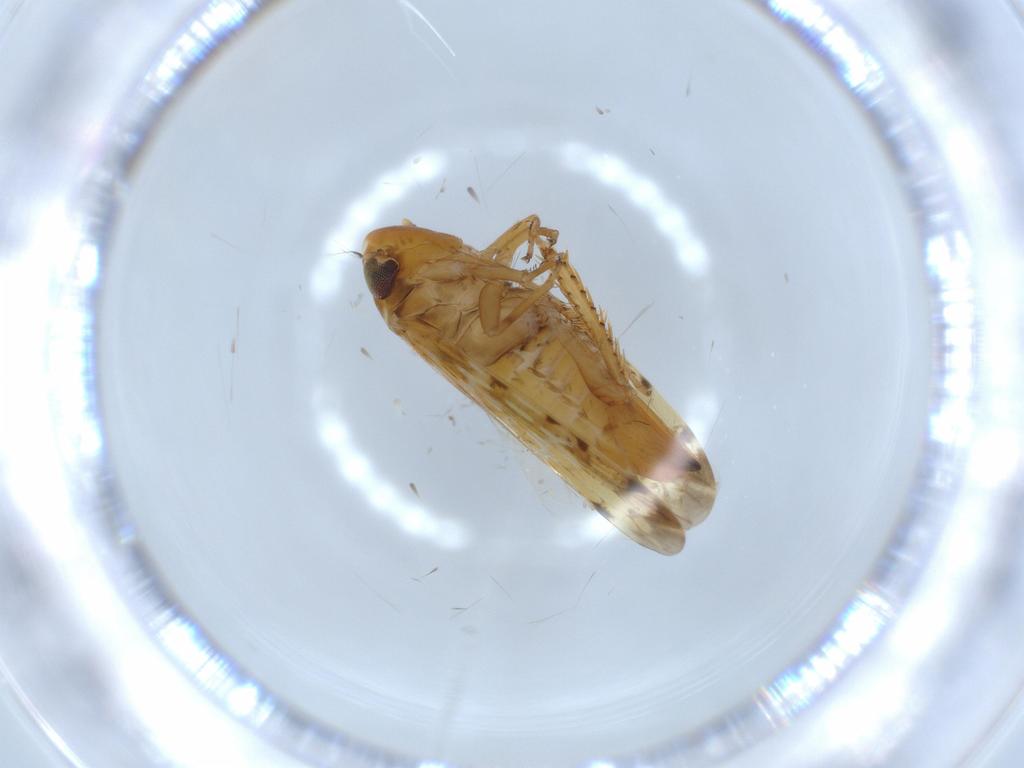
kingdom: Animalia
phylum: Arthropoda
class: Insecta
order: Hemiptera
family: Cicadellidae
